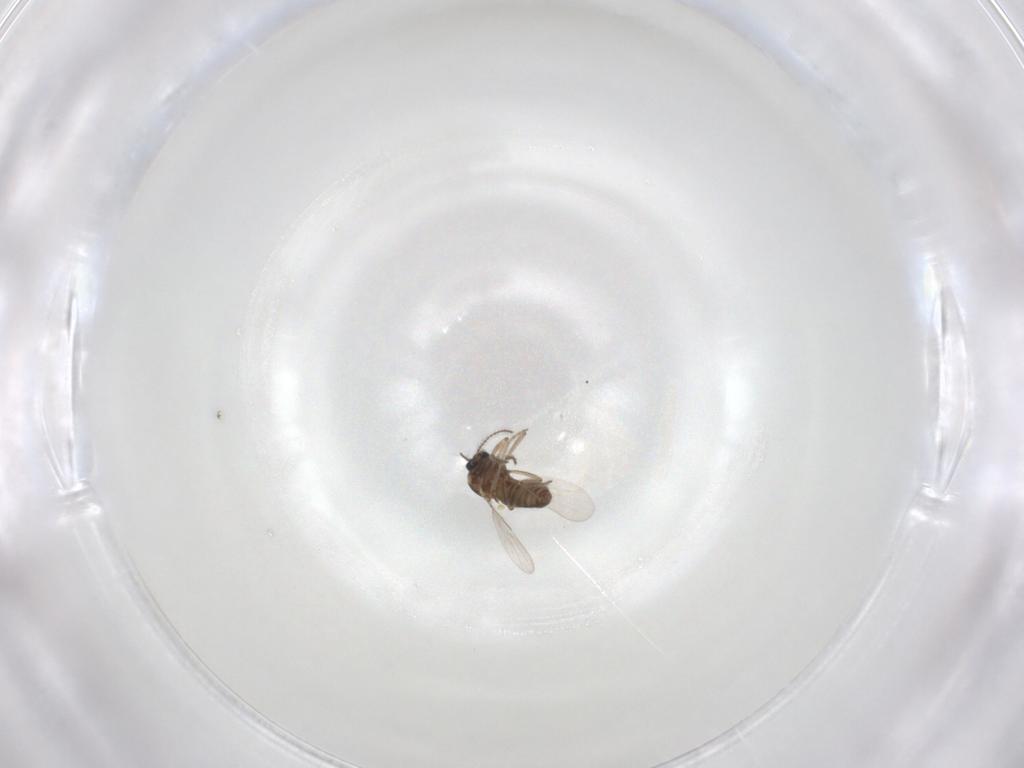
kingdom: Animalia
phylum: Arthropoda
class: Insecta
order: Diptera
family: Ceratopogonidae
